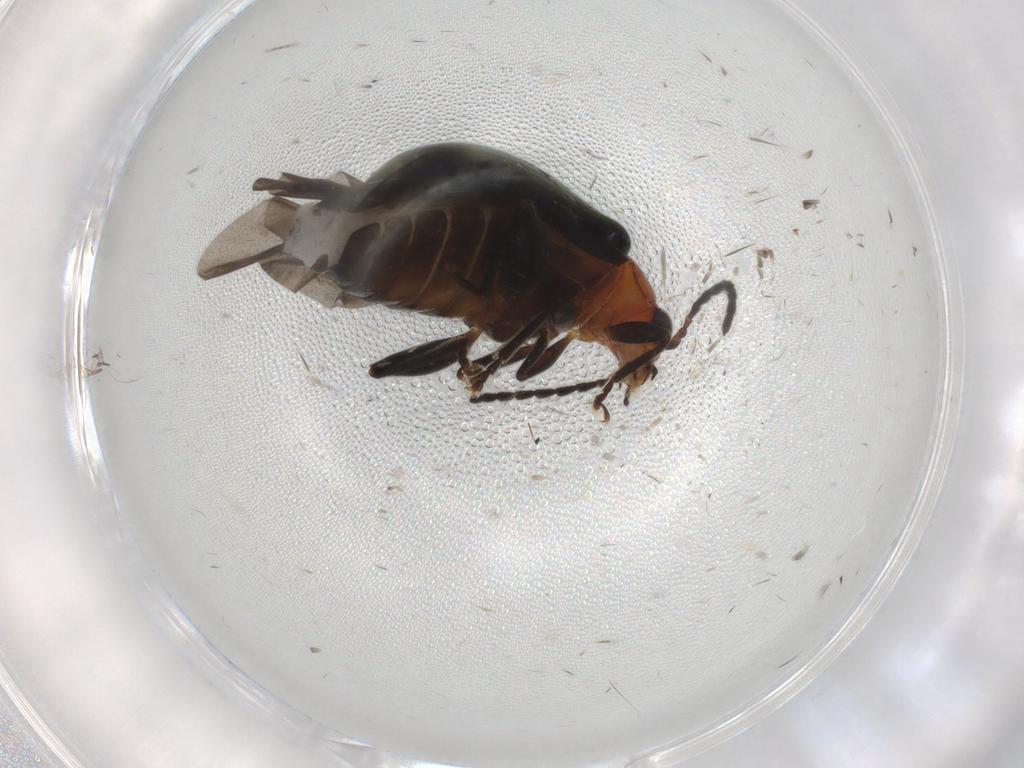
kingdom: Animalia
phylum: Arthropoda
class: Insecta
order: Coleoptera
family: Chrysomelidae
